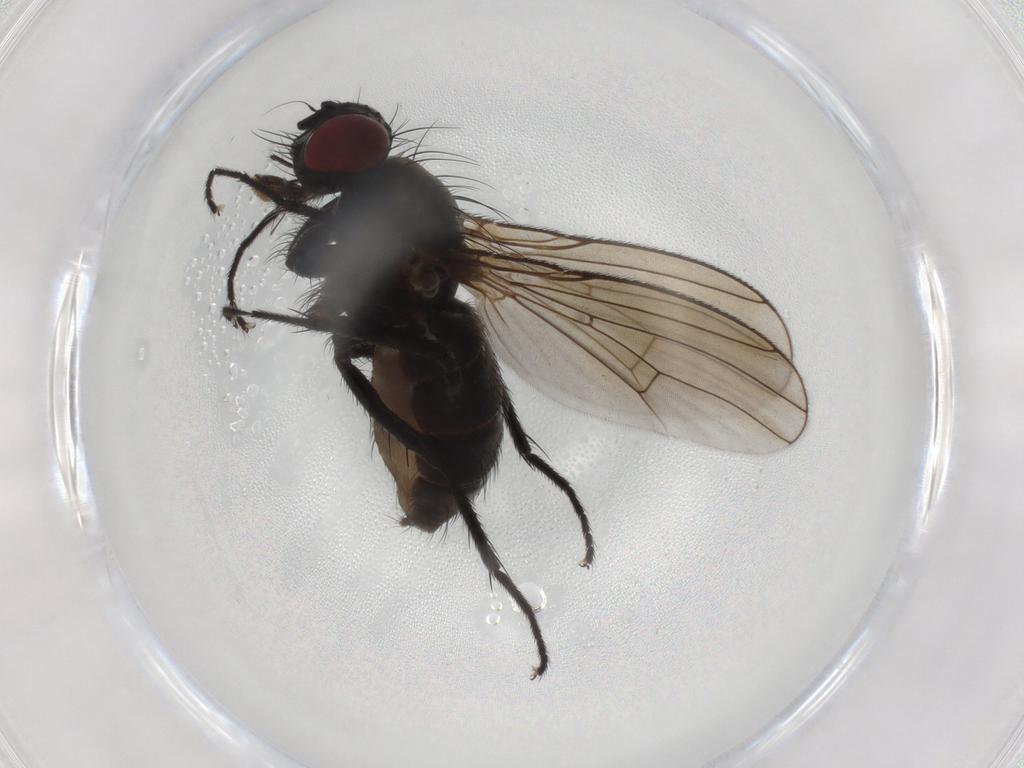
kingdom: Animalia
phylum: Arthropoda
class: Insecta
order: Diptera
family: Muscidae
